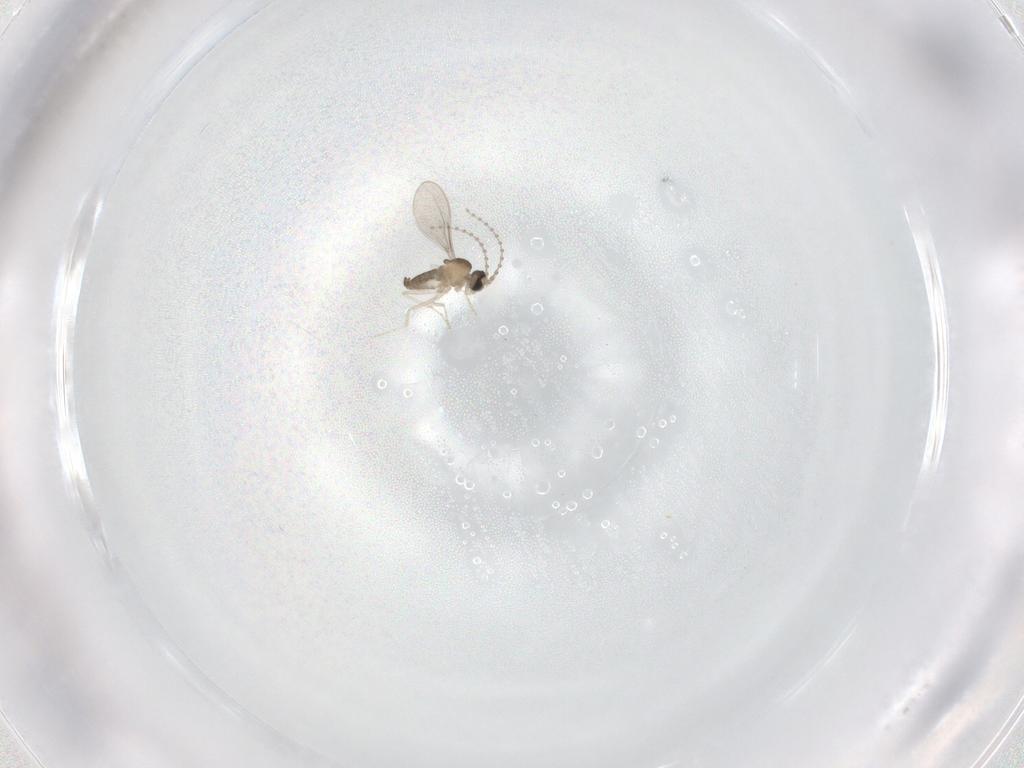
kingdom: Animalia
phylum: Arthropoda
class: Insecta
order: Diptera
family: Cecidomyiidae
